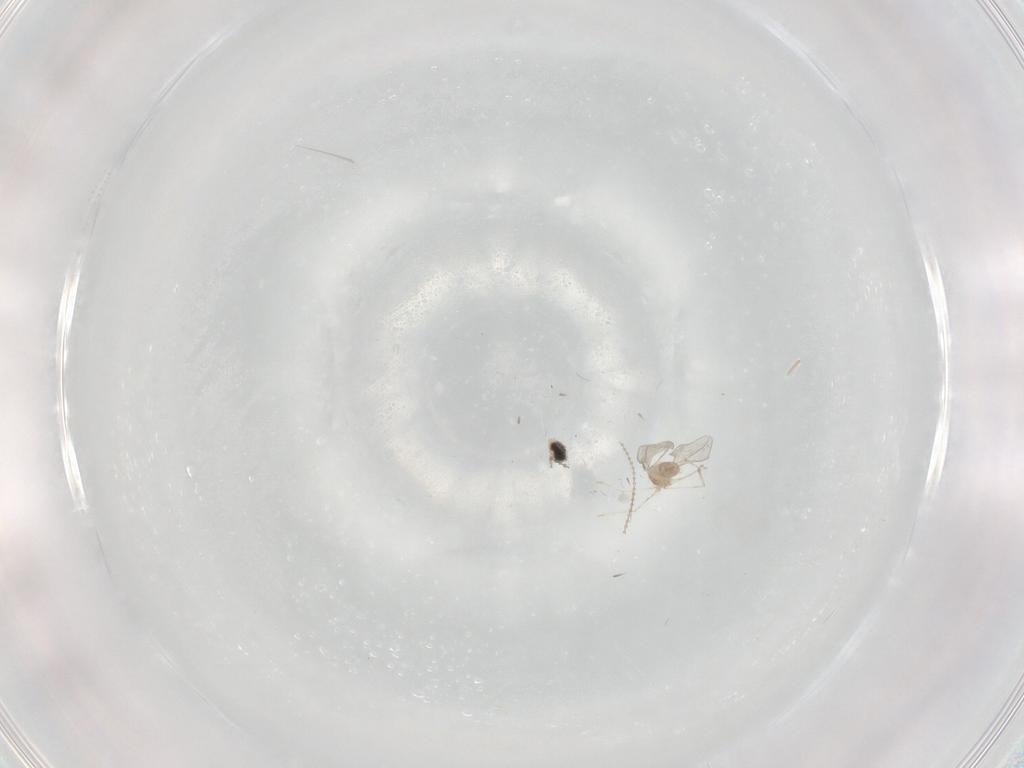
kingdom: Animalia
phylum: Arthropoda
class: Insecta
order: Diptera
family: Cecidomyiidae
